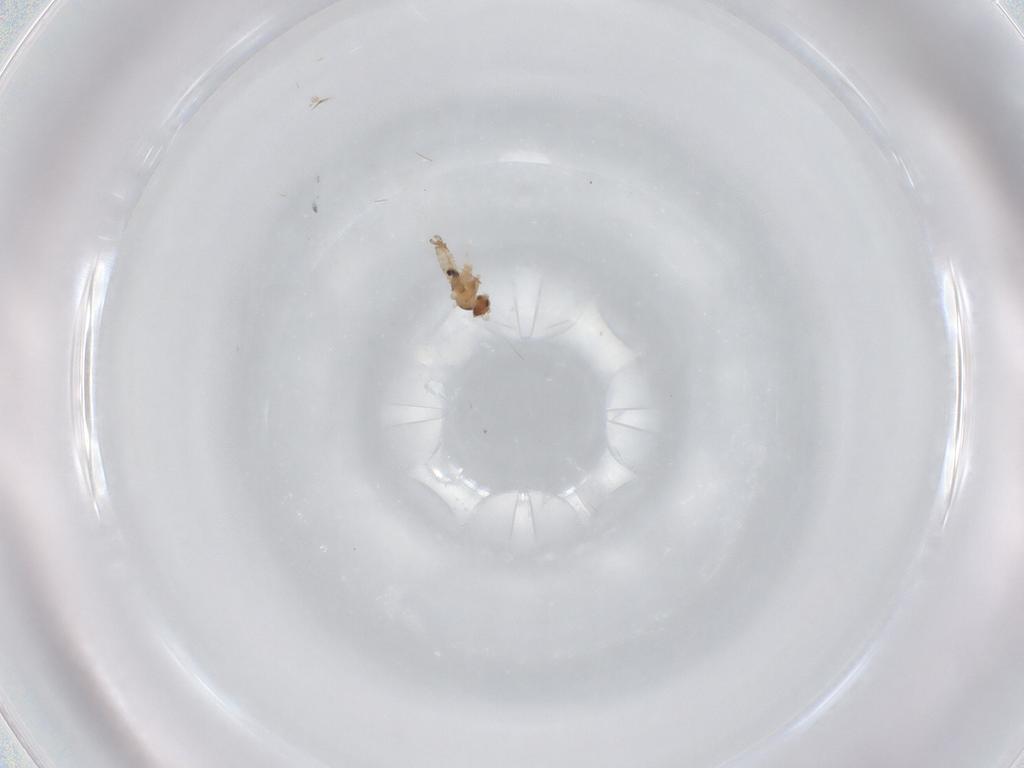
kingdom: Animalia
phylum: Arthropoda
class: Insecta
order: Diptera
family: Cecidomyiidae
